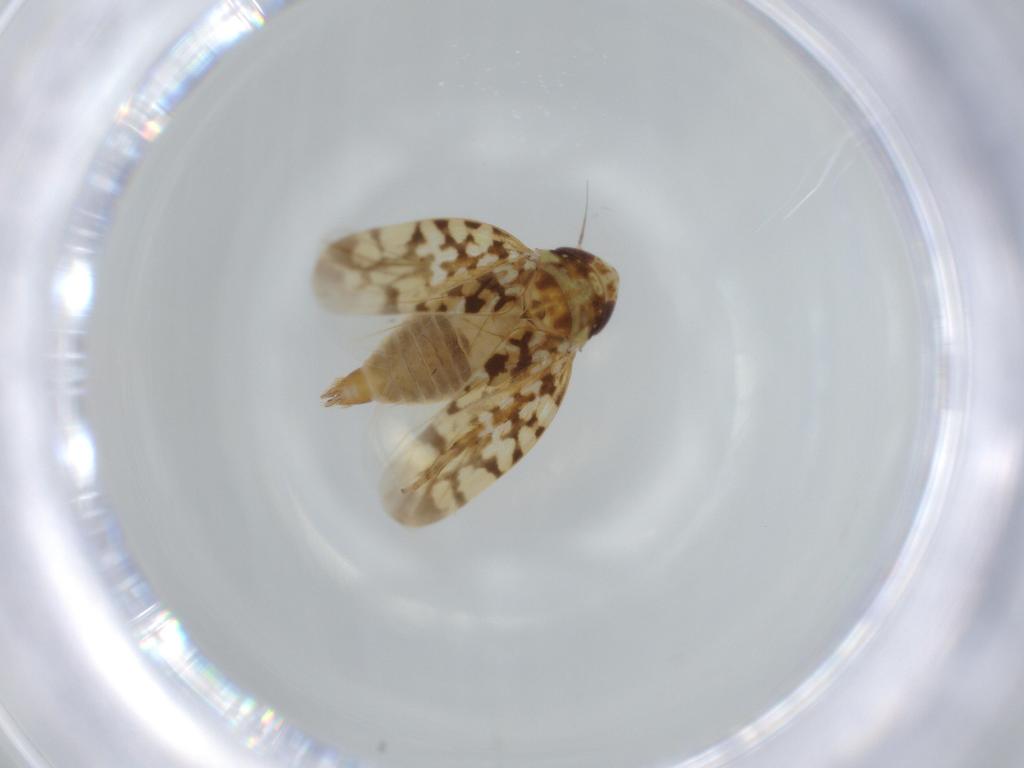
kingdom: Animalia
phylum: Arthropoda
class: Insecta
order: Hemiptera
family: Cicadellidae
